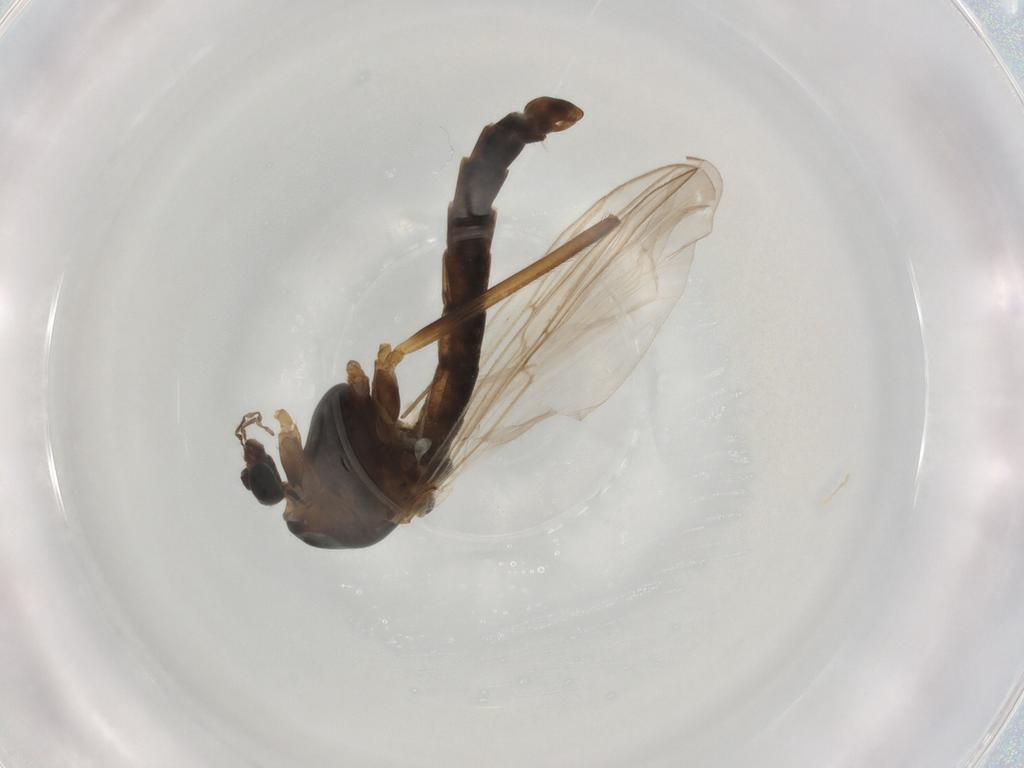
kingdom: Animalia
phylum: Arthropoda
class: Insecta
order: Diptera
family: Chironomidae
